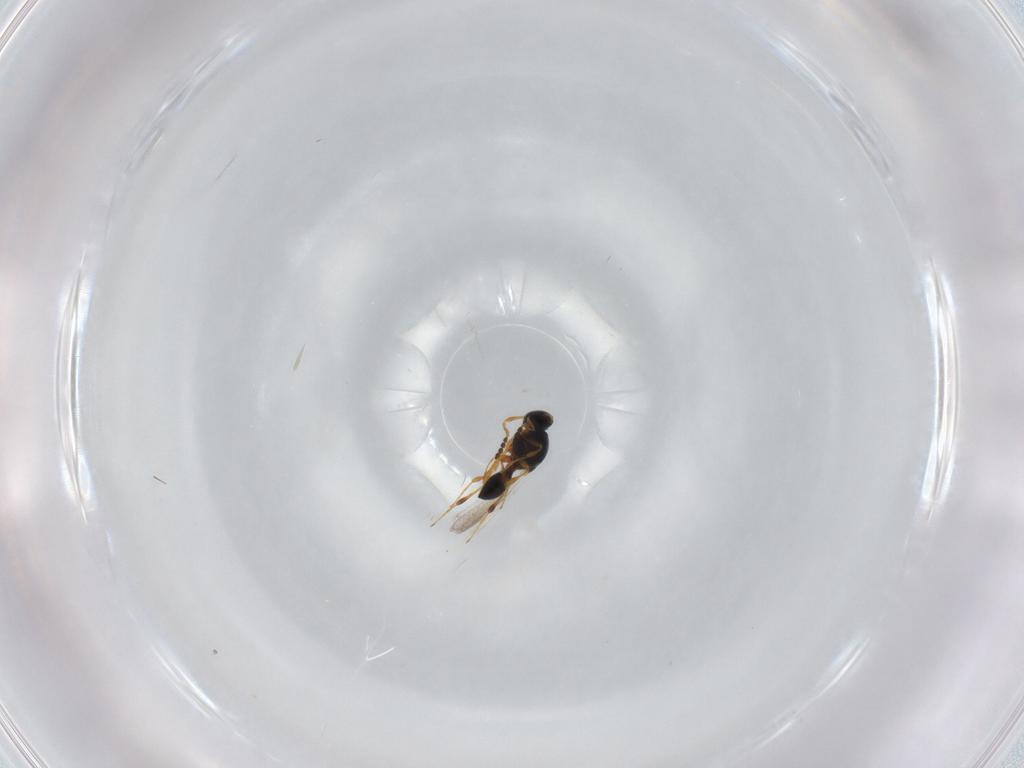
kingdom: Animalia
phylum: Arthropoda
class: Insecta
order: Hymenoptera
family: Platygastridae
